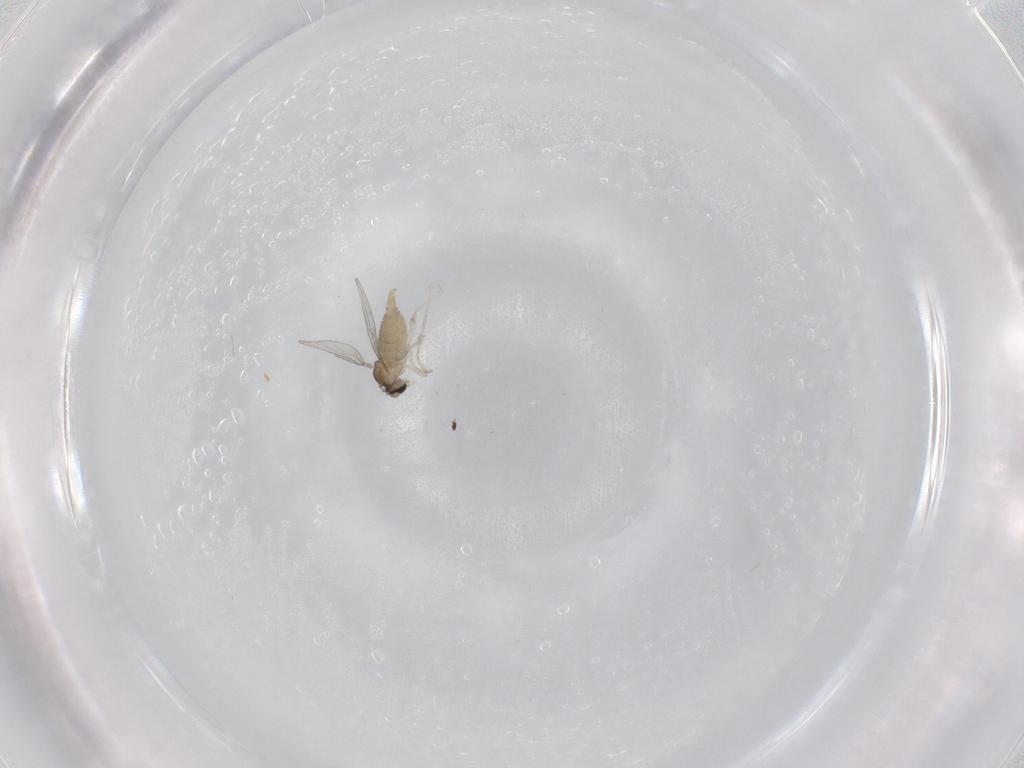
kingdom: Animalia
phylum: Arthropoda
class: Insecta
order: Diptera
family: Cecidomyiidae
